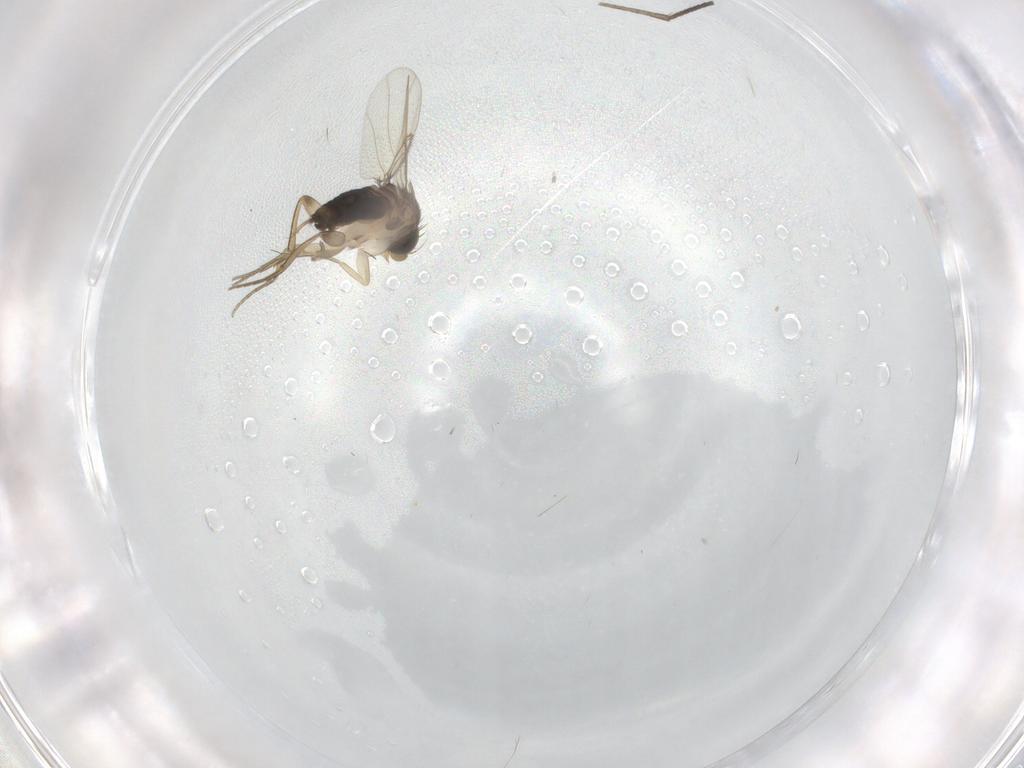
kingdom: Animalia
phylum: Arthropoda
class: Insecta
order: Diptera
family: Sciaridae
